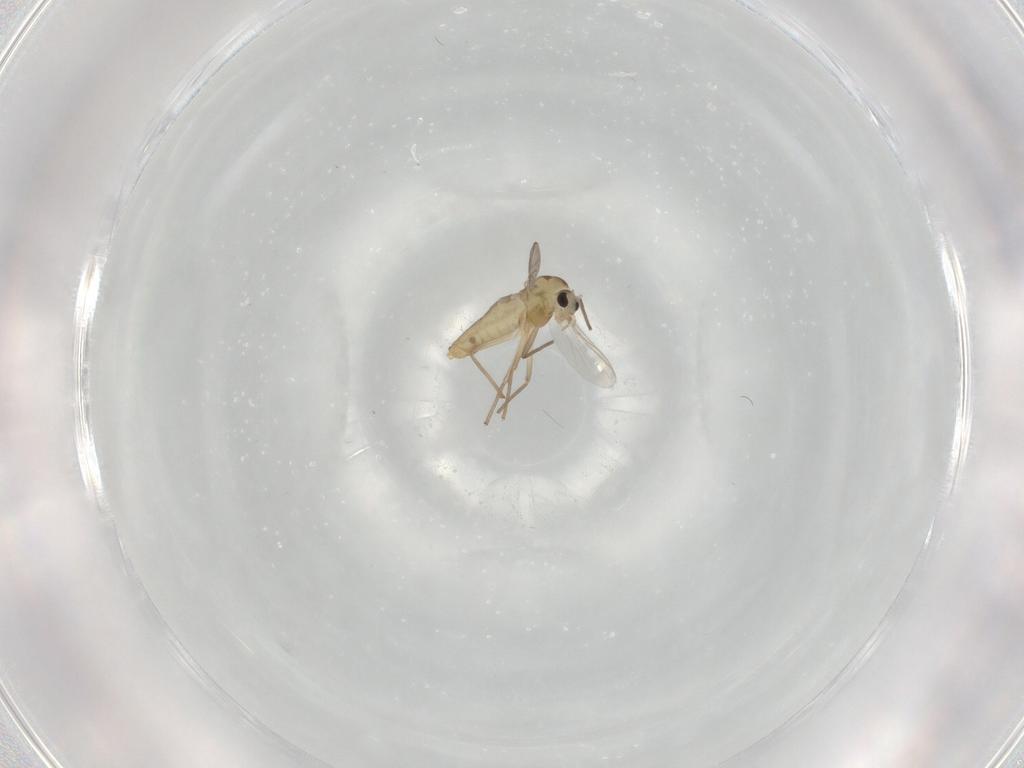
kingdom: Animalia
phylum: Arthropoda
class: Insecta
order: Diptera
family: Chironomidae
